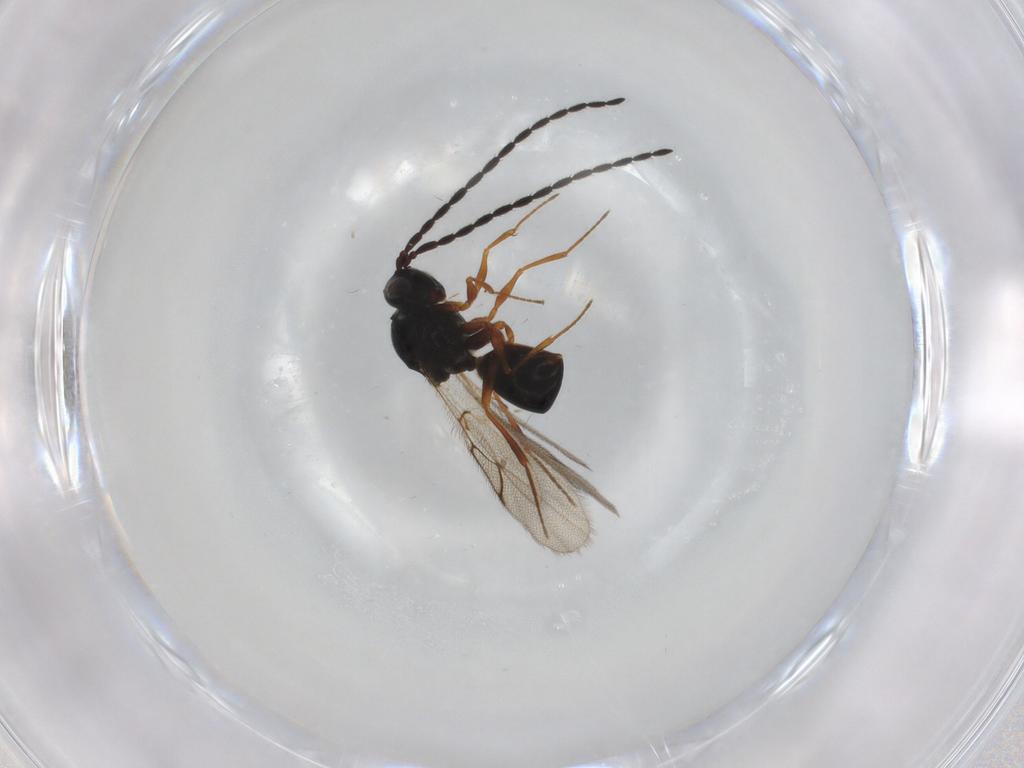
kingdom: Animalia
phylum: Arthropoda
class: Insecta
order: Hymenoptera
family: Figitidae
